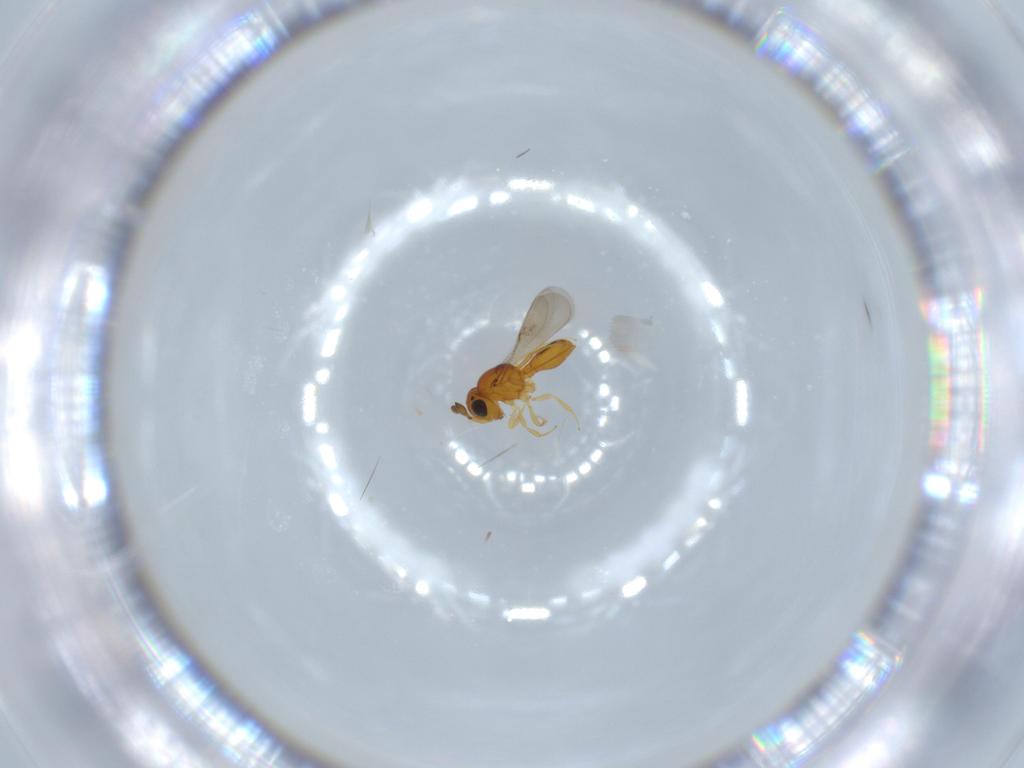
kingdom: Animalia
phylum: Arthropoda
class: Insecta
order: Hymenoptera
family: Scelionidae
